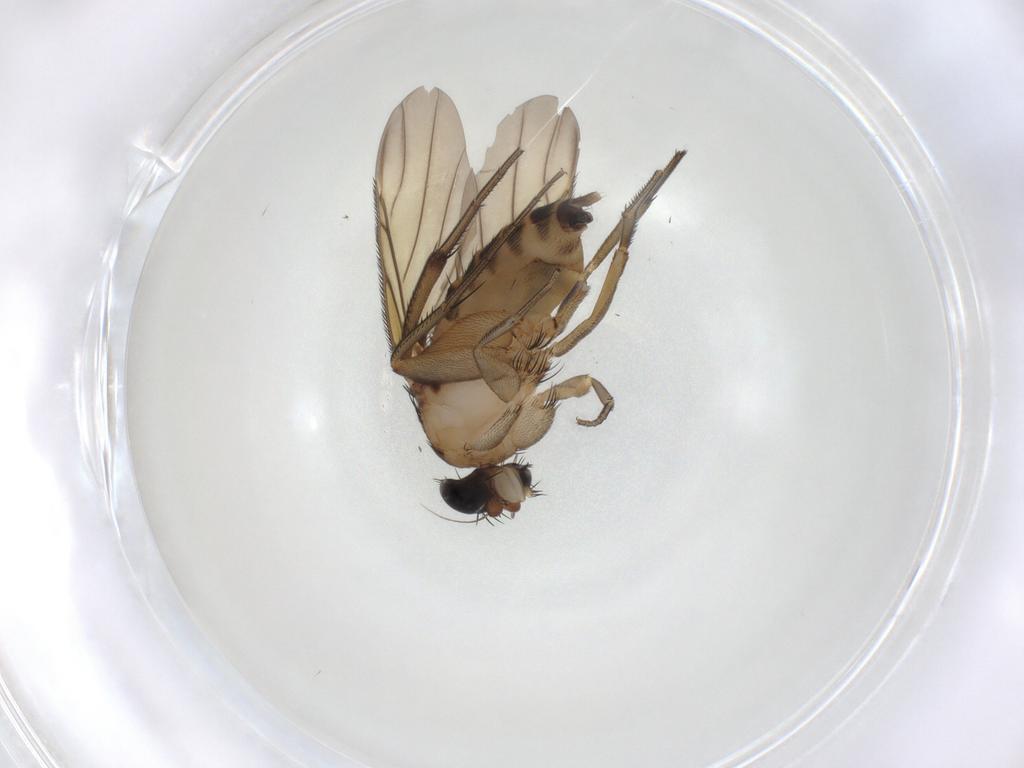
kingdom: Animalia
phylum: Arthropoda
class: Insecta
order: Diptera
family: Phoridae
